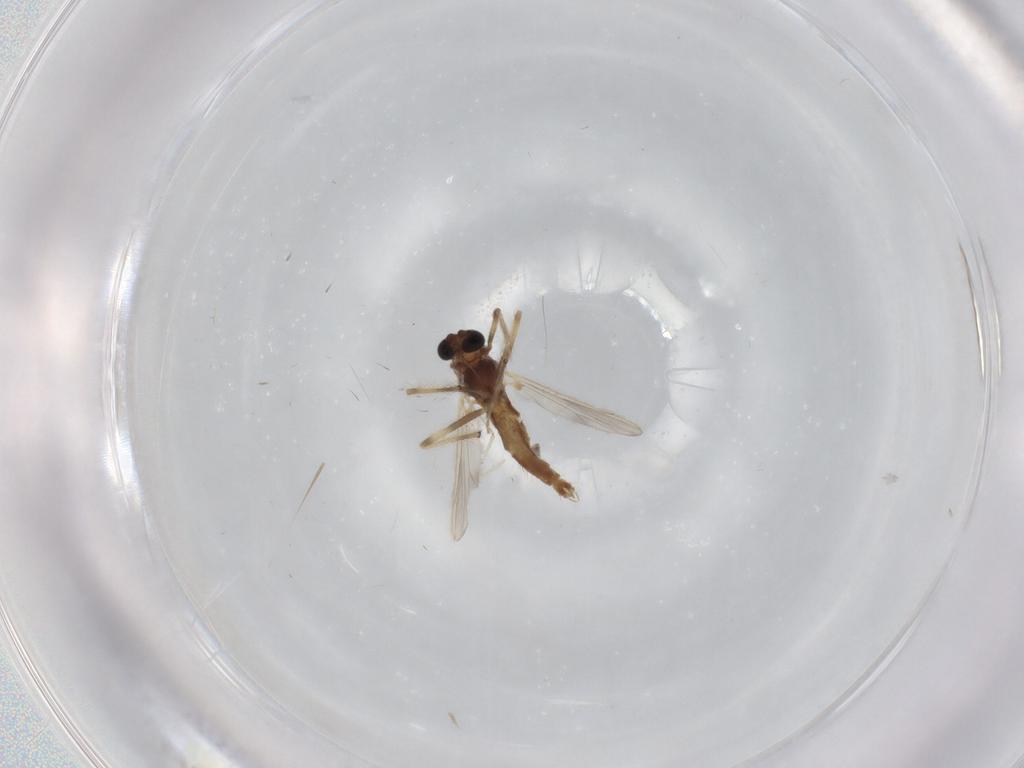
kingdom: Animalia
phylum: Arthropoda
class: Insecta
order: Diptera
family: Chironomidae
